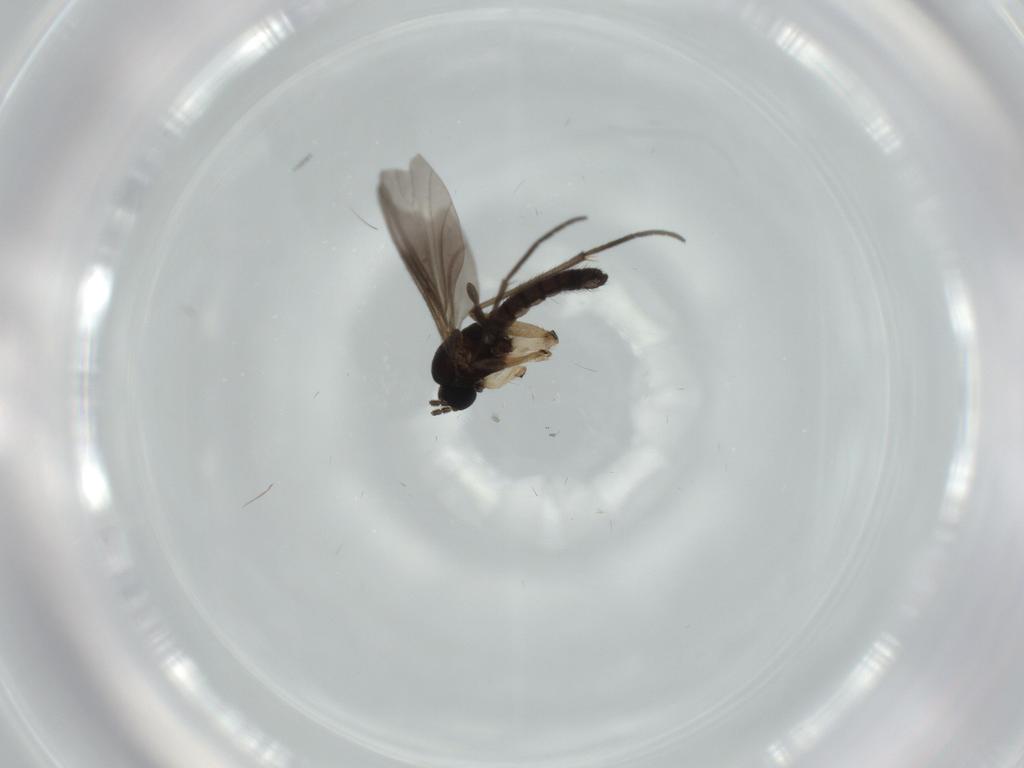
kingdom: Animalia
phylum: Arthropoda
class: Insecta
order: Diptera
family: Sciaridae
